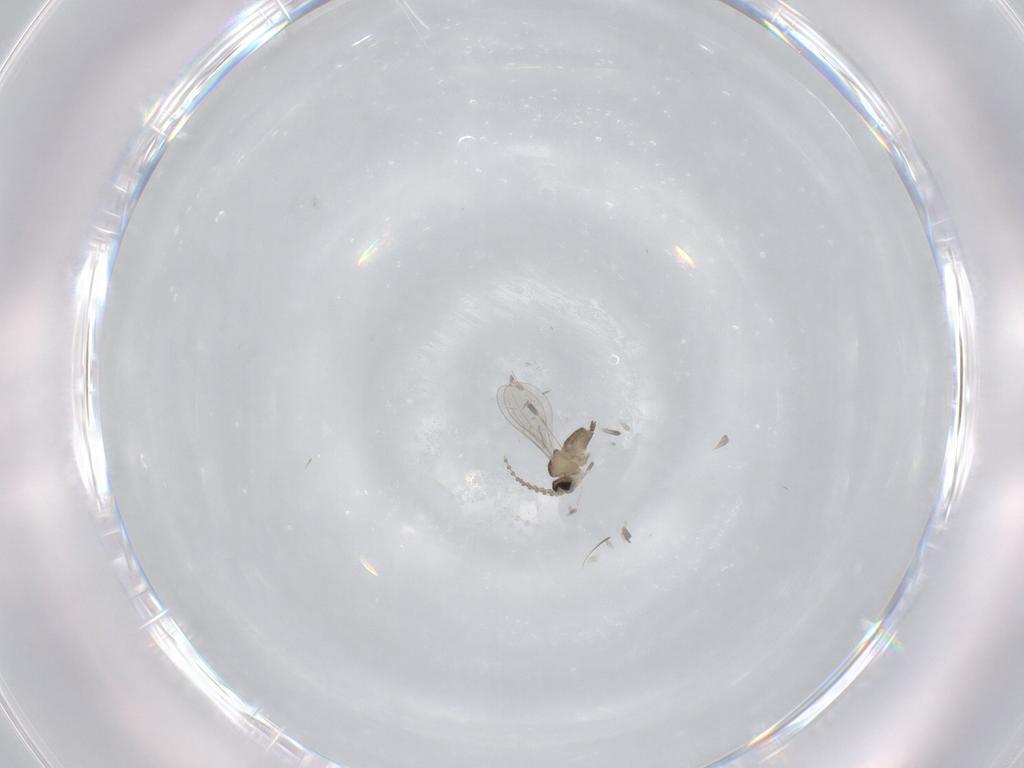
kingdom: Animalia
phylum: Arthropoda
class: Insecta
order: Diptera
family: Cecidomyiidae
